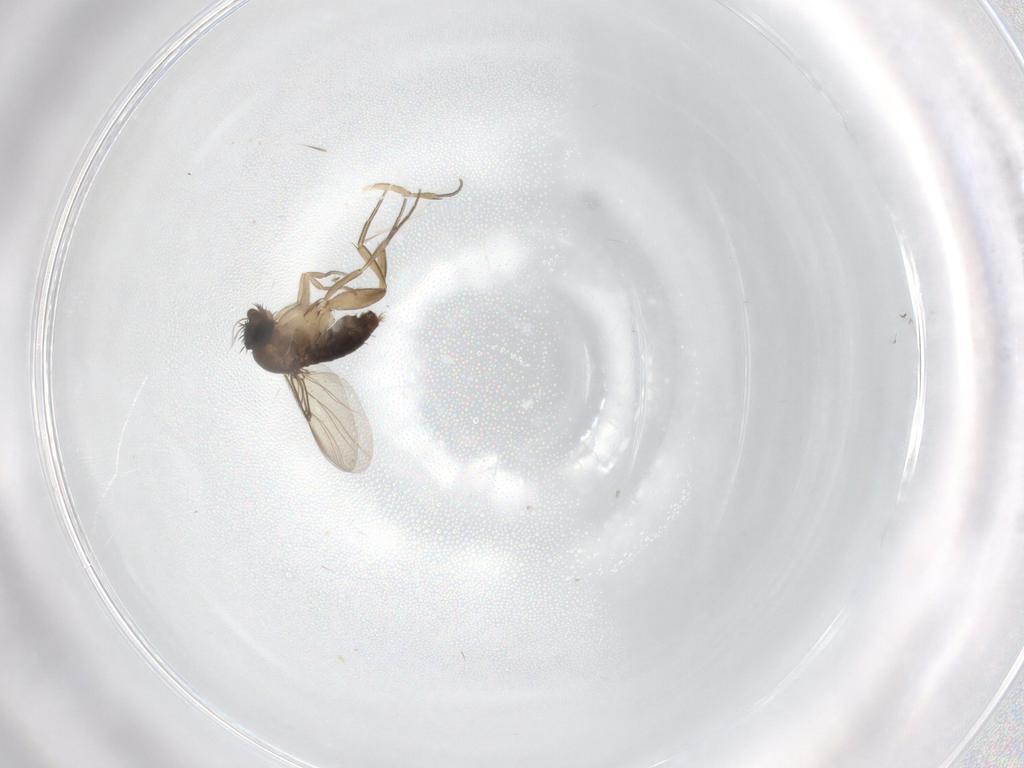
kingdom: Animalia
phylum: Arthropoda
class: Insecta
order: Diptera
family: Phoridae
